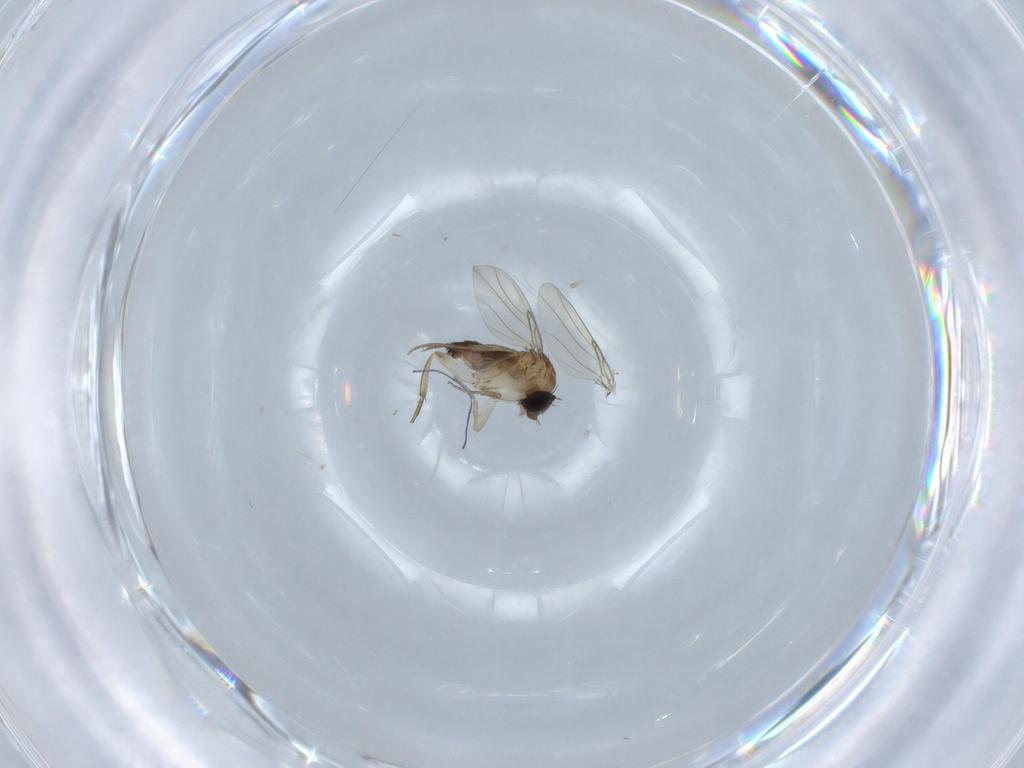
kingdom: Animalia
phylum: Arthropoda
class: Insecta
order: Diptera
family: Phoridae
